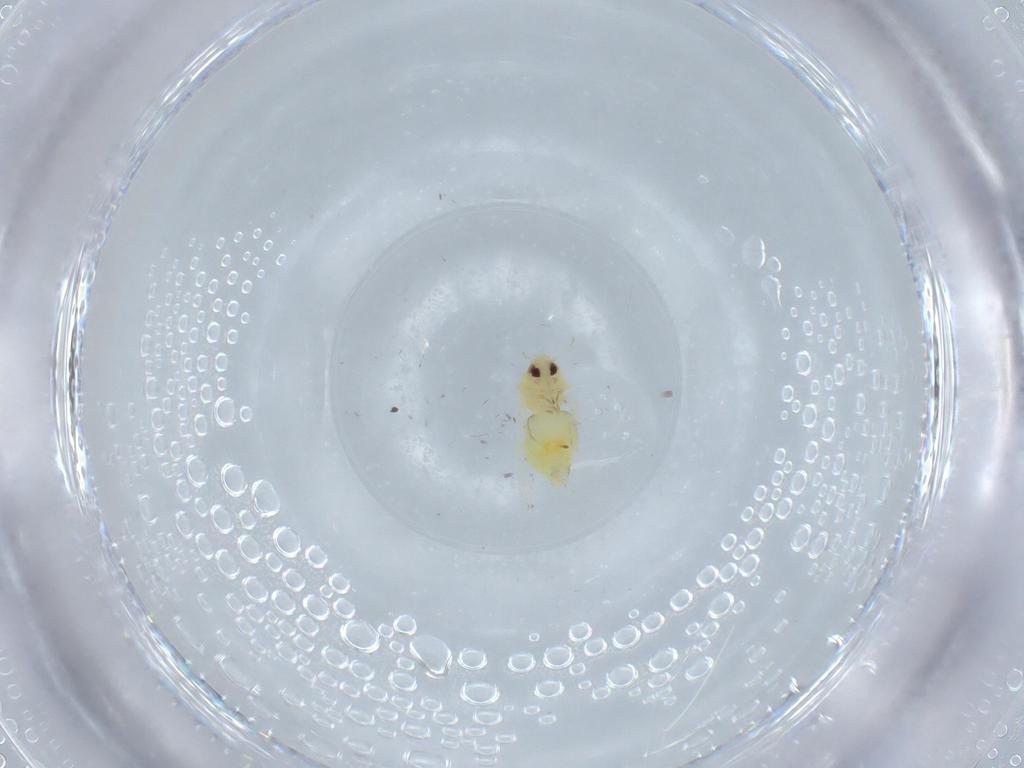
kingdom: Animalia
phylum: Arthropoda
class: Insecta
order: Hemiptera
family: Aleyrodidae
